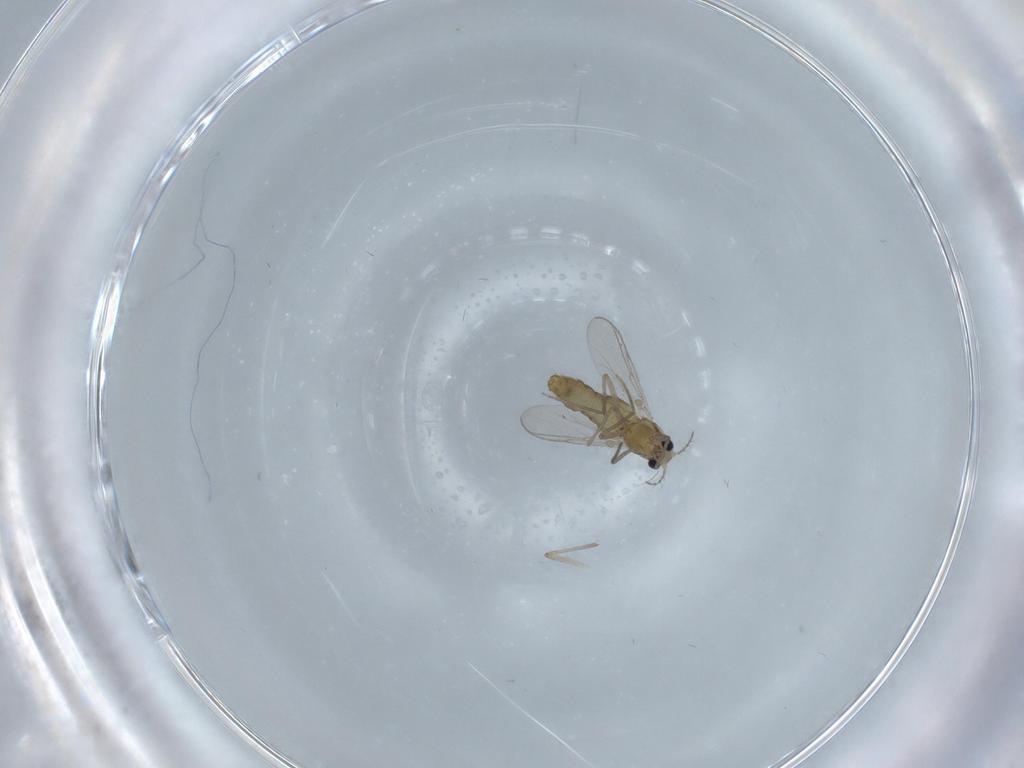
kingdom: Animalia
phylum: Arthropoda
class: Insecta
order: Diptera
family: Chironomidae
